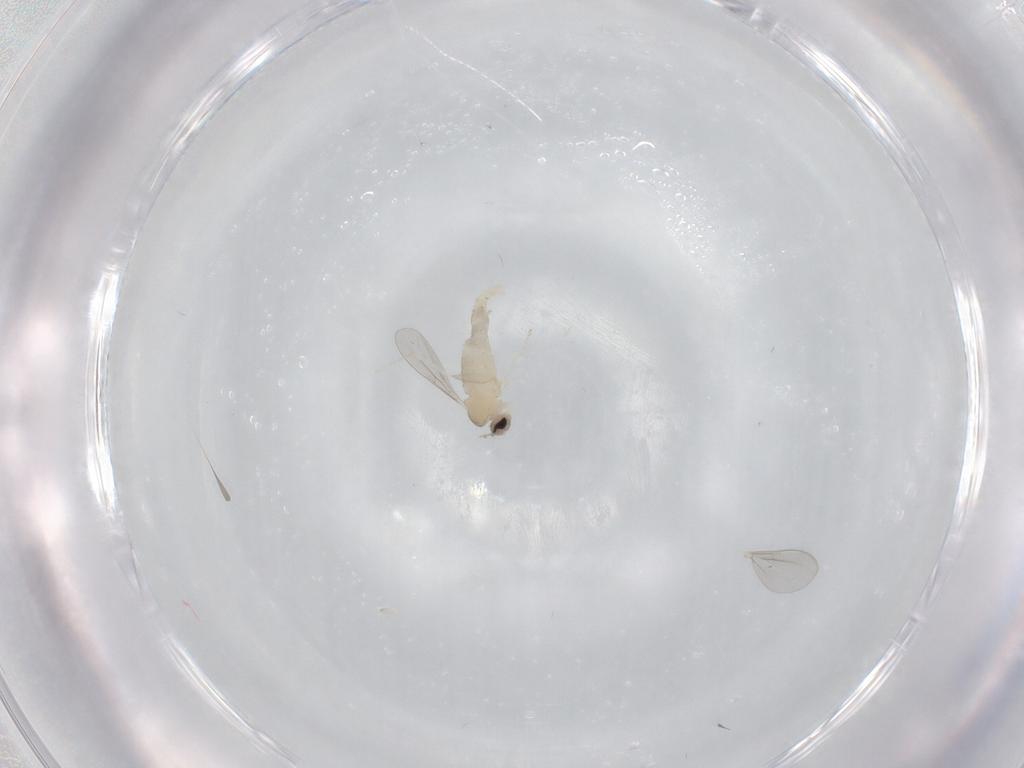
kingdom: Animalia
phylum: Arthropoda
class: Insecta
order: Diptera
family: Cecidomyiidae
